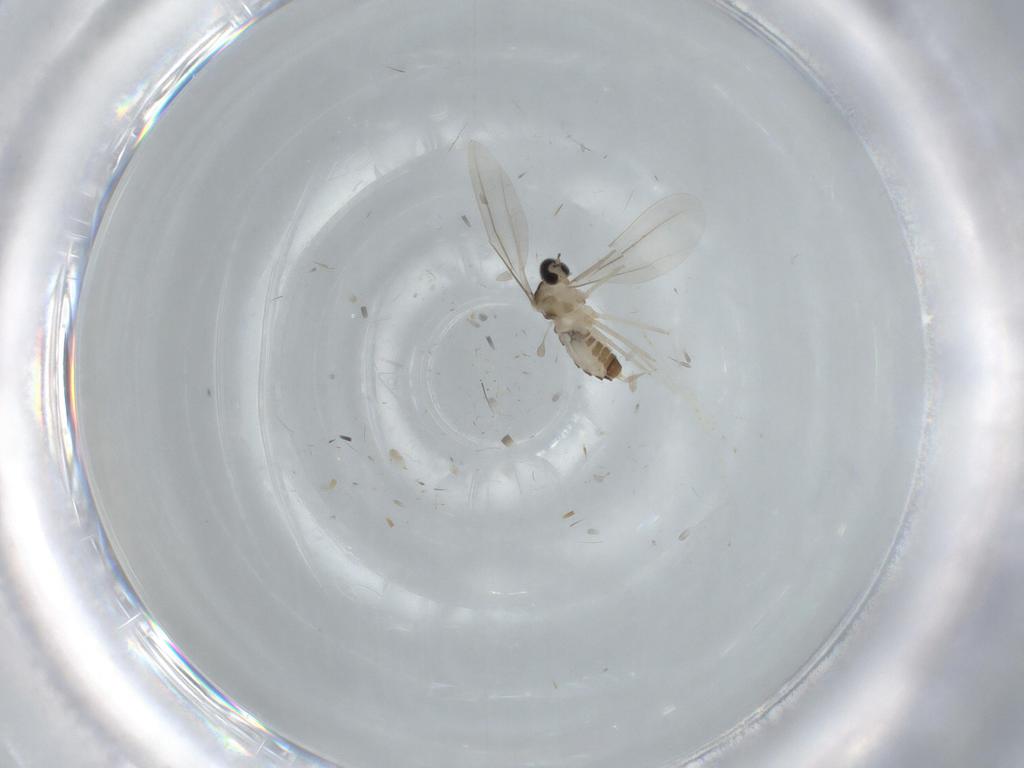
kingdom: Animalia
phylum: Arthropoda
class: Insecta
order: Diptera
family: Cecidomyiidae
